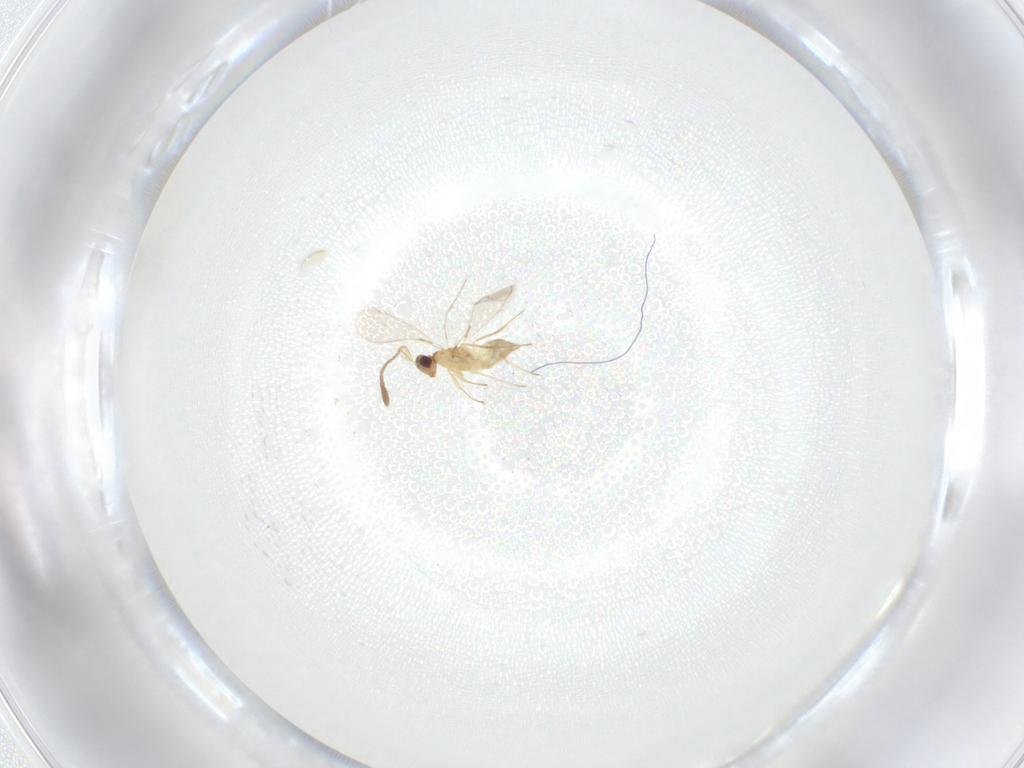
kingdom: Animalia
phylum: Arthropoda
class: Insecta
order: Hymenoptera
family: Mymaridae
